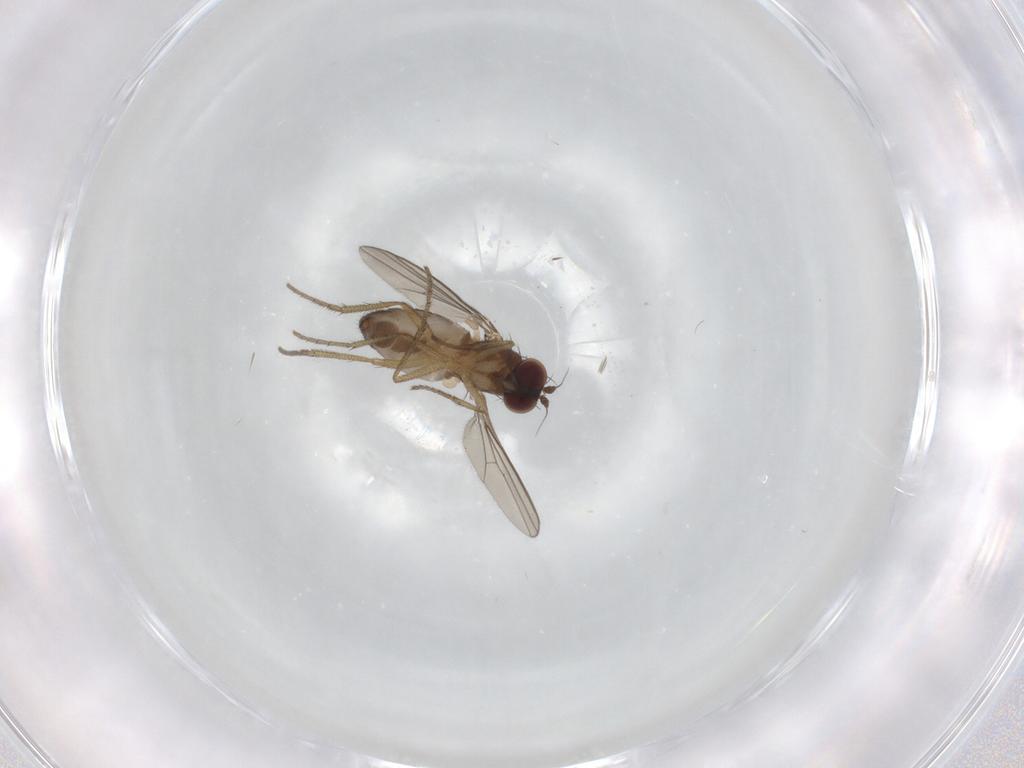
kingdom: Animalia
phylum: Arthropoda
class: Insecta
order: Diptera
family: Dolichopodidae
